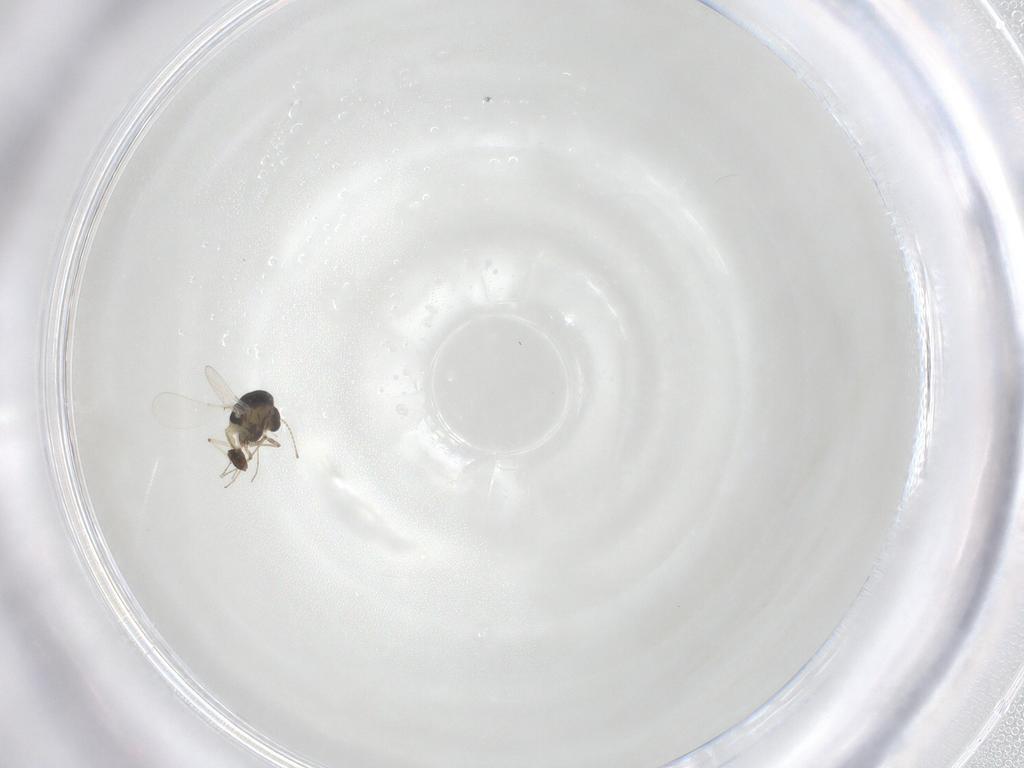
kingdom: Animalia
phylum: Arthropoda
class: Insecta
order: Diptera
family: Chironomidae
